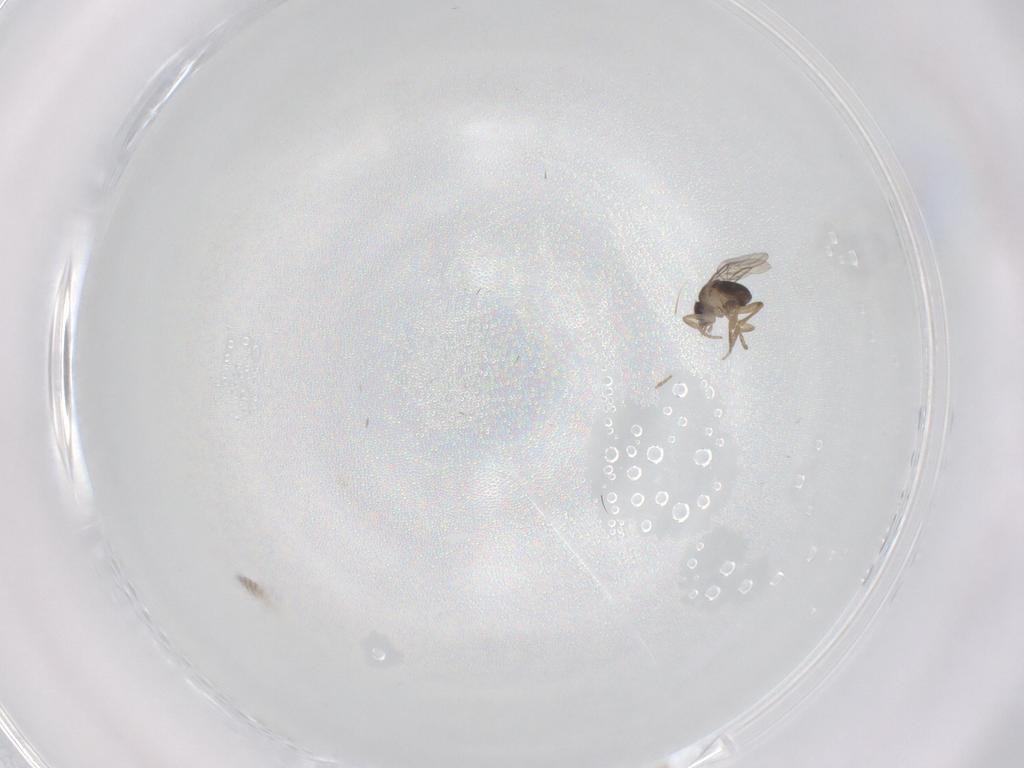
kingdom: Animalia
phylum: Arthropoda
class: Insecta
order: Diptera
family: Phoridae
